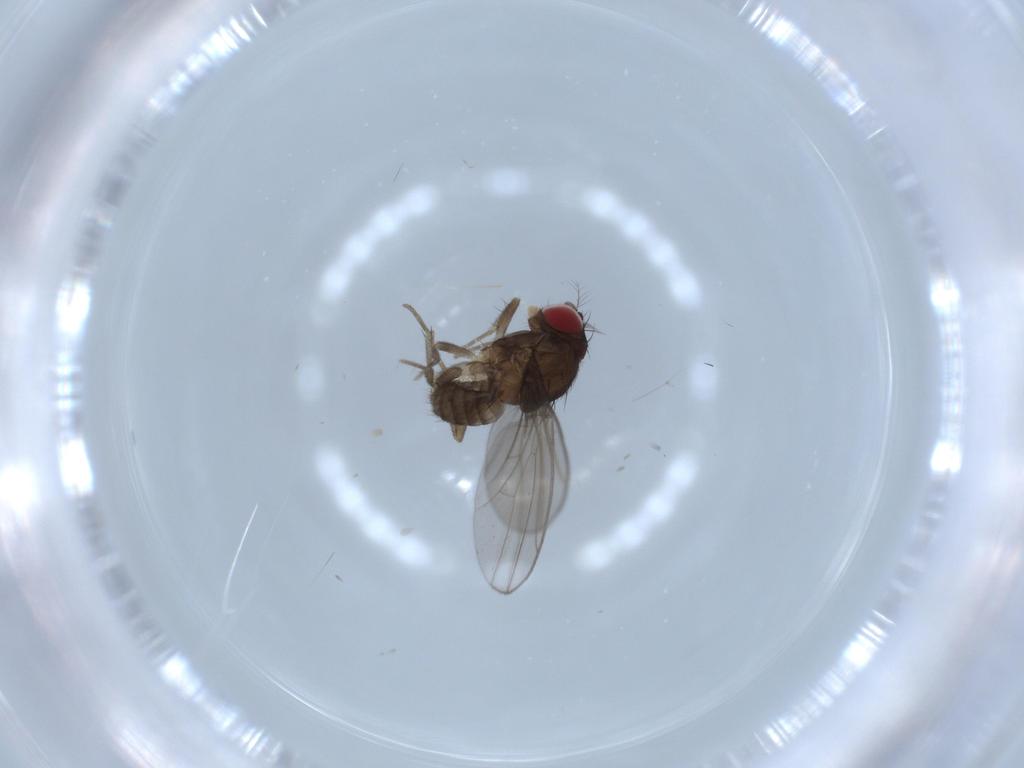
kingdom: Animalia
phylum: Arthropoda
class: Insecta
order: Diptera
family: Drosophilidae
